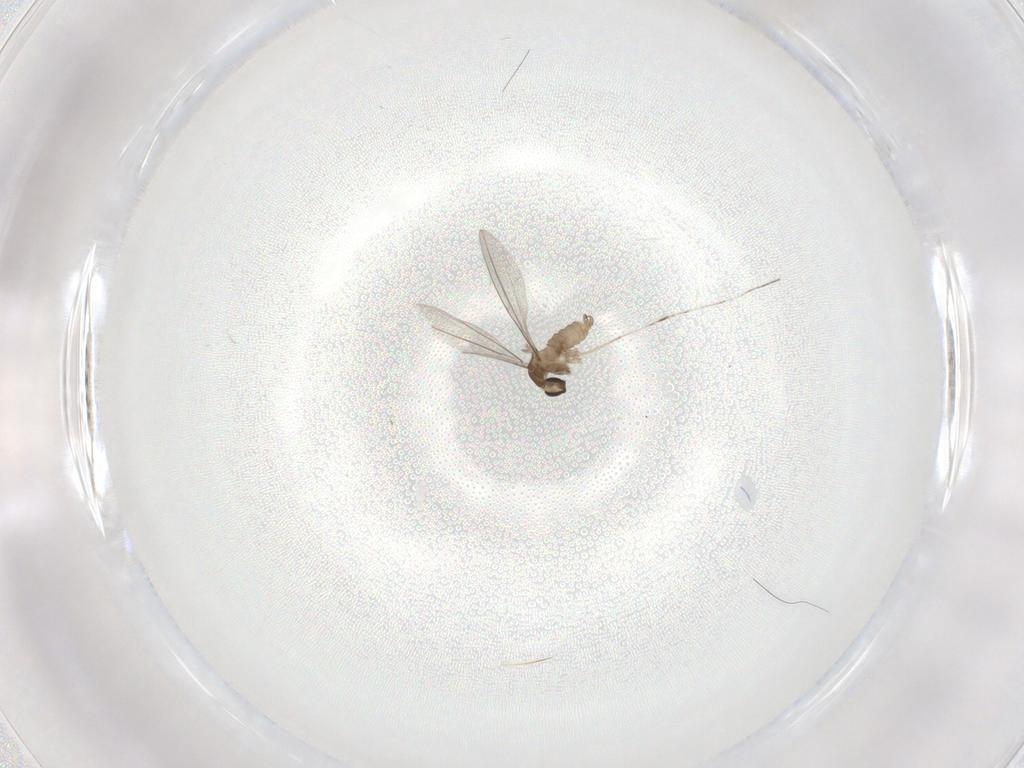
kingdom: Animalia
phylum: Arthropoda
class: Insecta
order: Diptera
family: Cecidomyiidae
